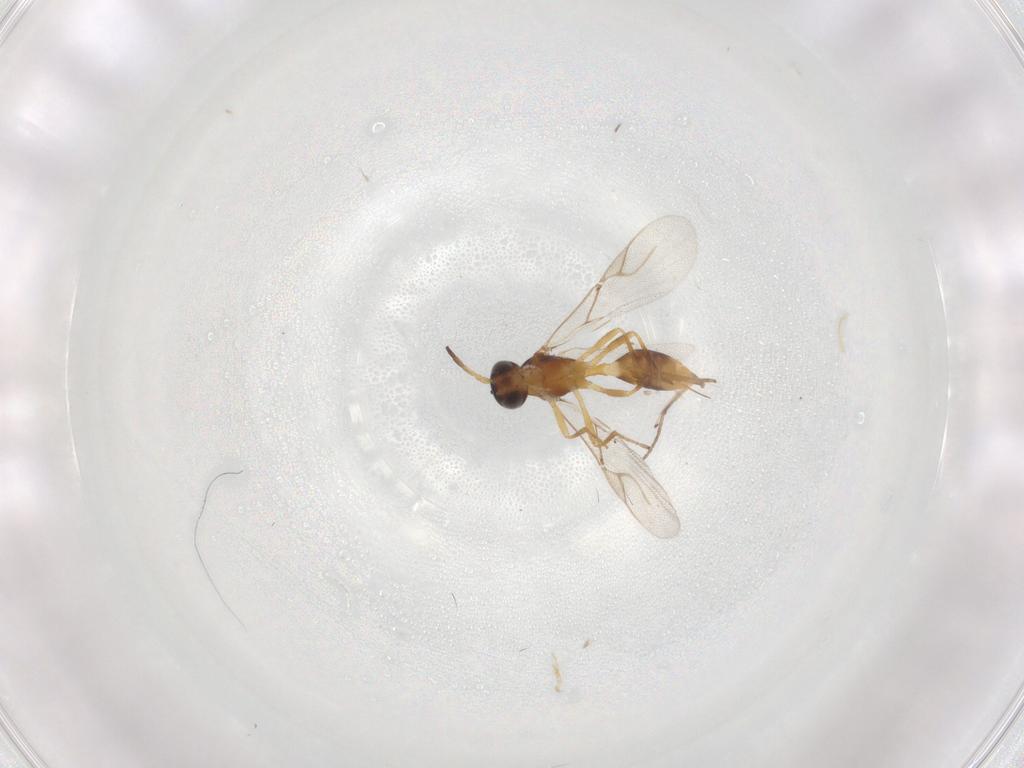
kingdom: Animalia
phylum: Arthropoda
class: Insecta
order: Hymenoptera
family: Braconidae
